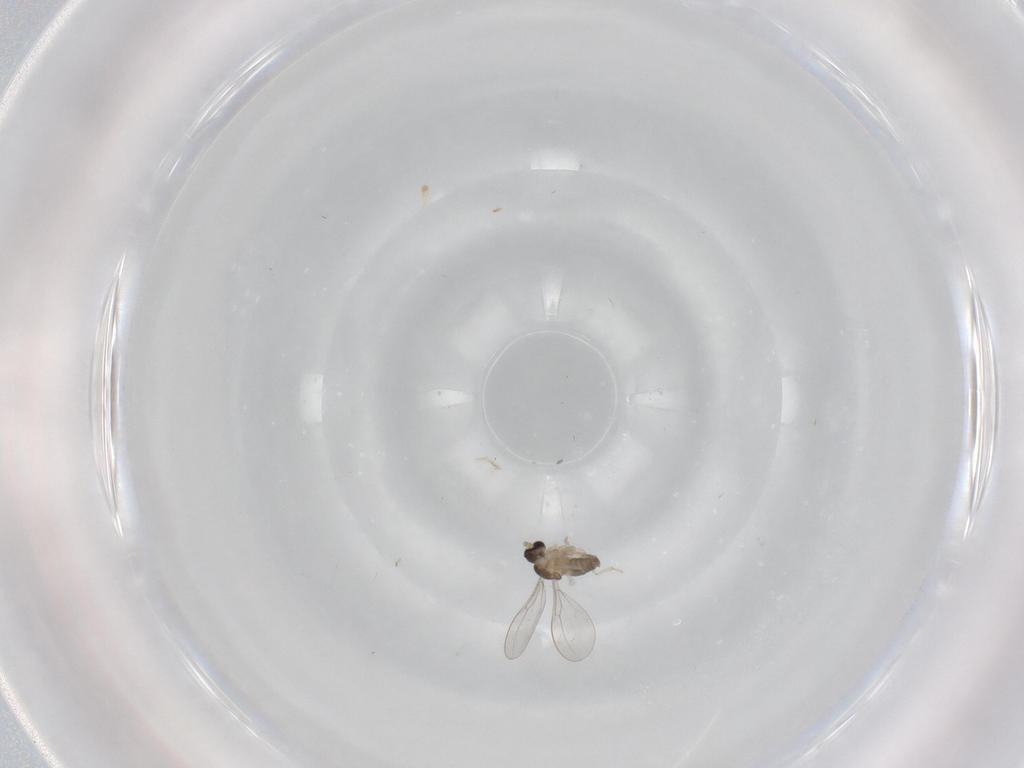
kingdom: Animalia
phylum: Arthropoda
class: Insecta
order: Diptera
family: Cecidomyiidae
